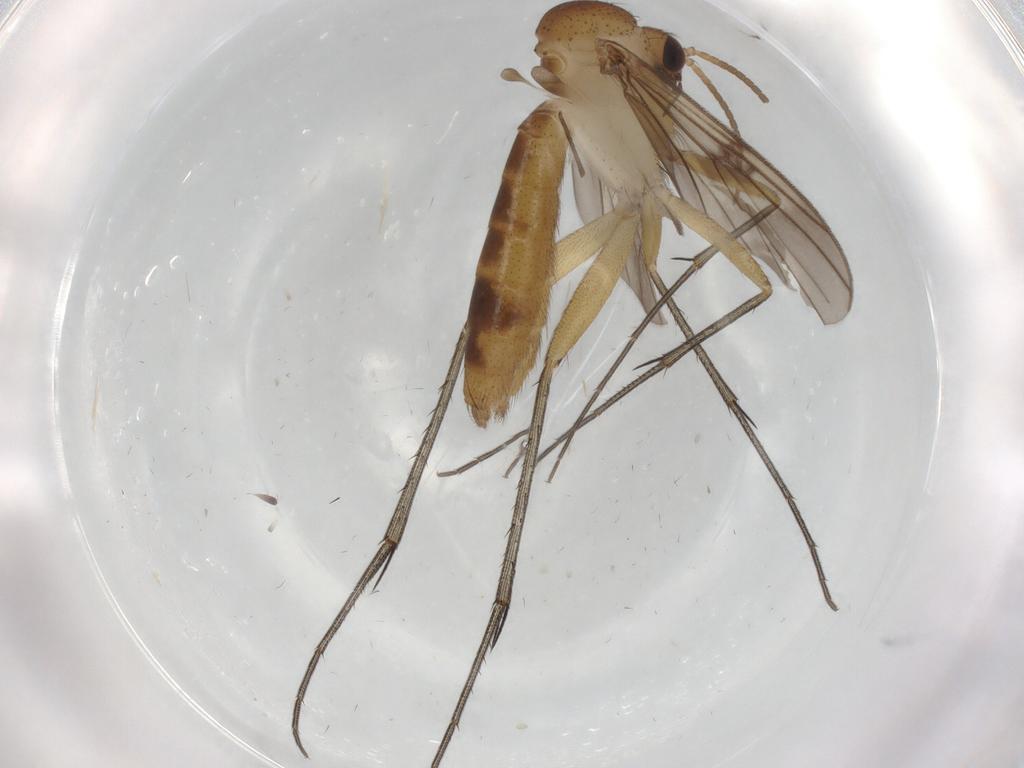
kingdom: Animalia
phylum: Arthropoda
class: Insecta
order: Diptera
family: Mycetophilidae
